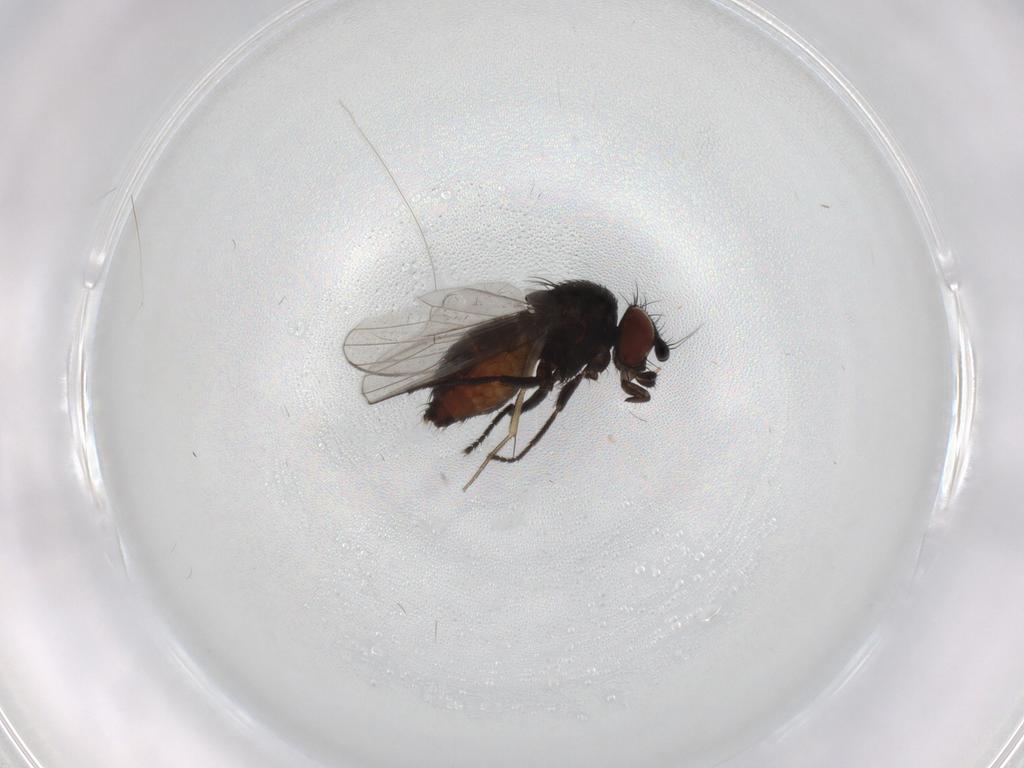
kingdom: Animalia
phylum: Arthropoda
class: Insecta
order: Diptera
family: Milichiidae
